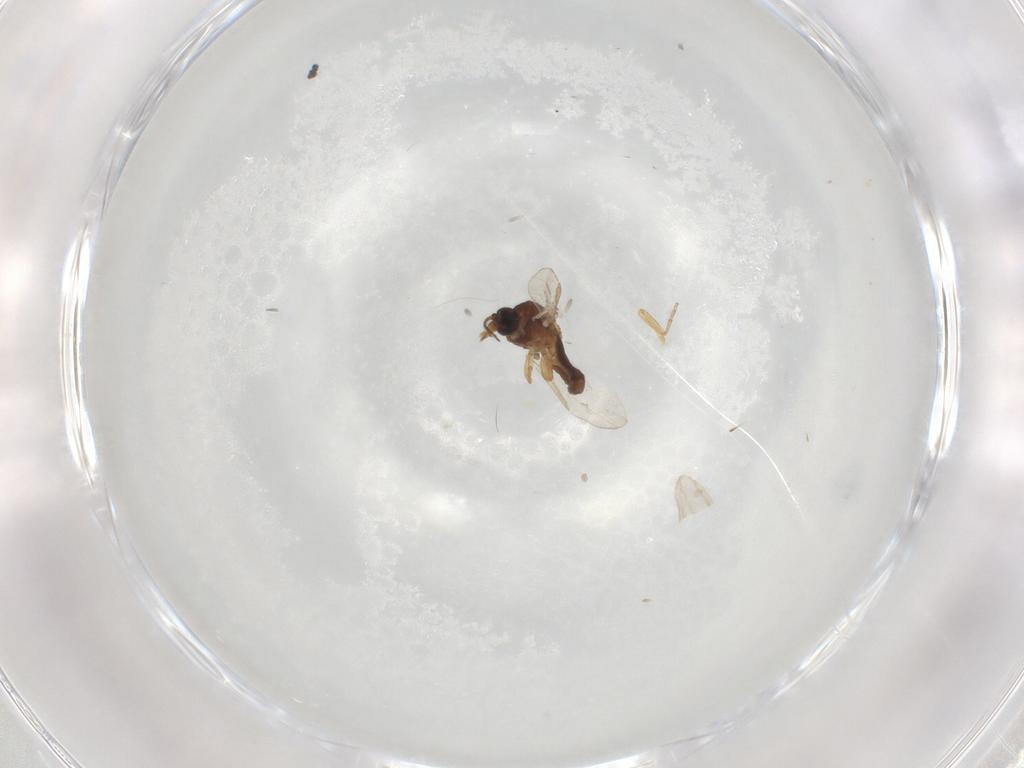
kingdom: Animalia
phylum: Arthropoda
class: Insecta
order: Diptera
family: Ceratopogonidae
